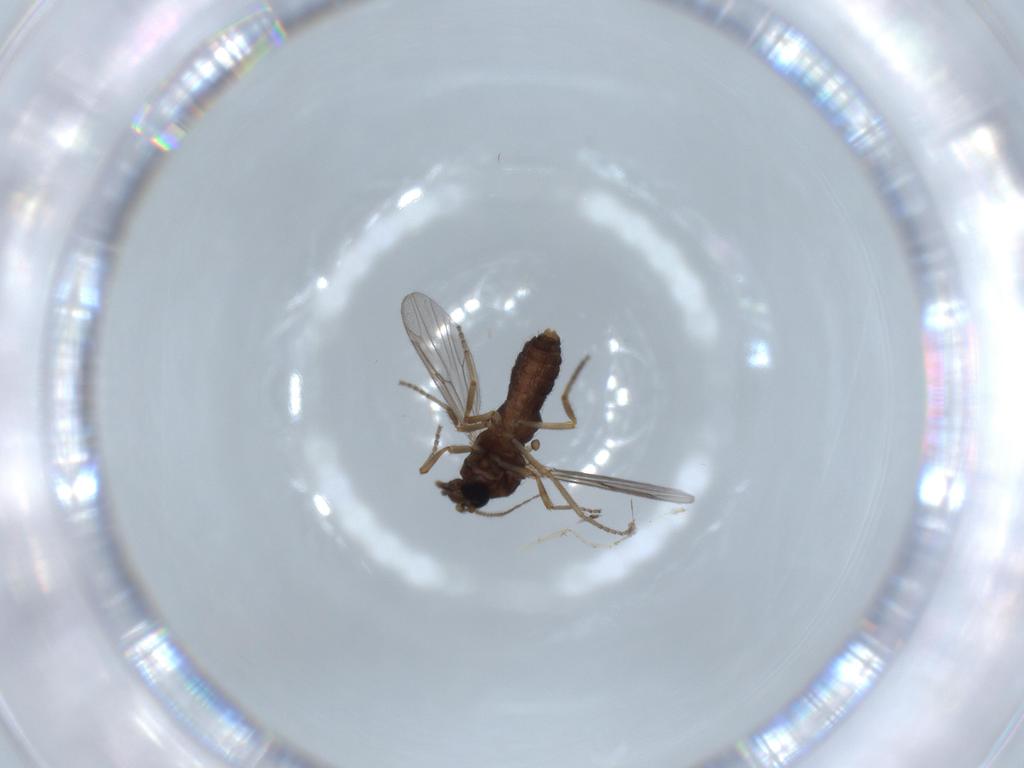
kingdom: Animalia
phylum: Arthropoda
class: Insecta
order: Diptera
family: Ceratopogonidae
